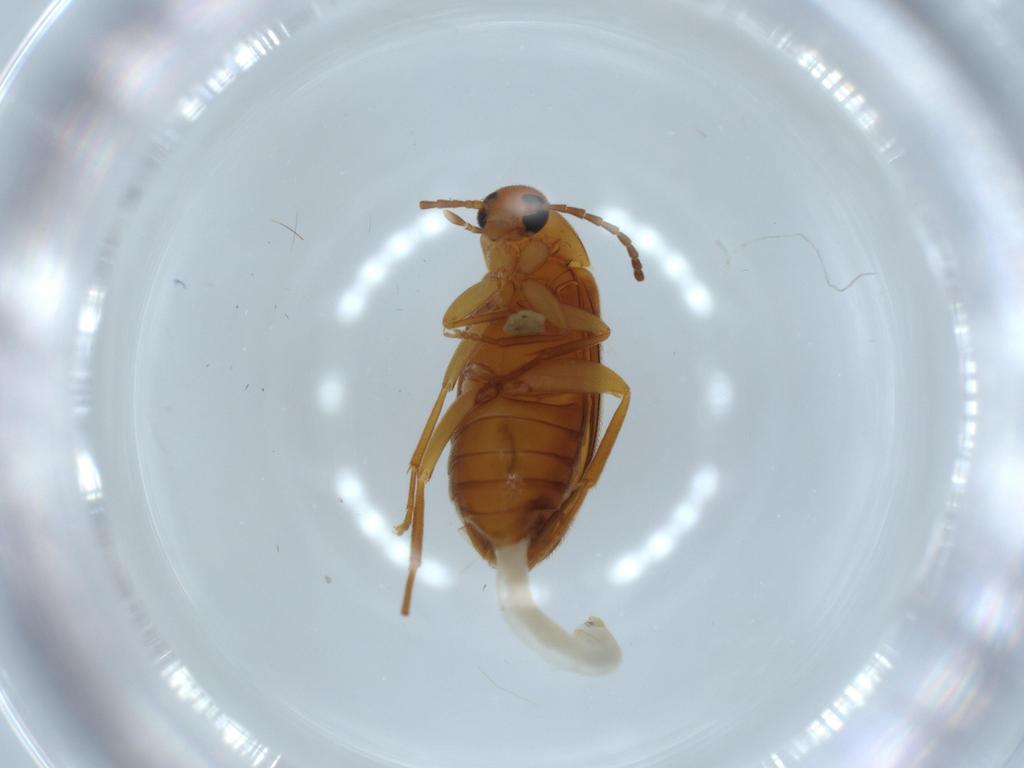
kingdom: Animalia
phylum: Arthropoda
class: Insecta
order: Coleoptera
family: Scraptiidae
